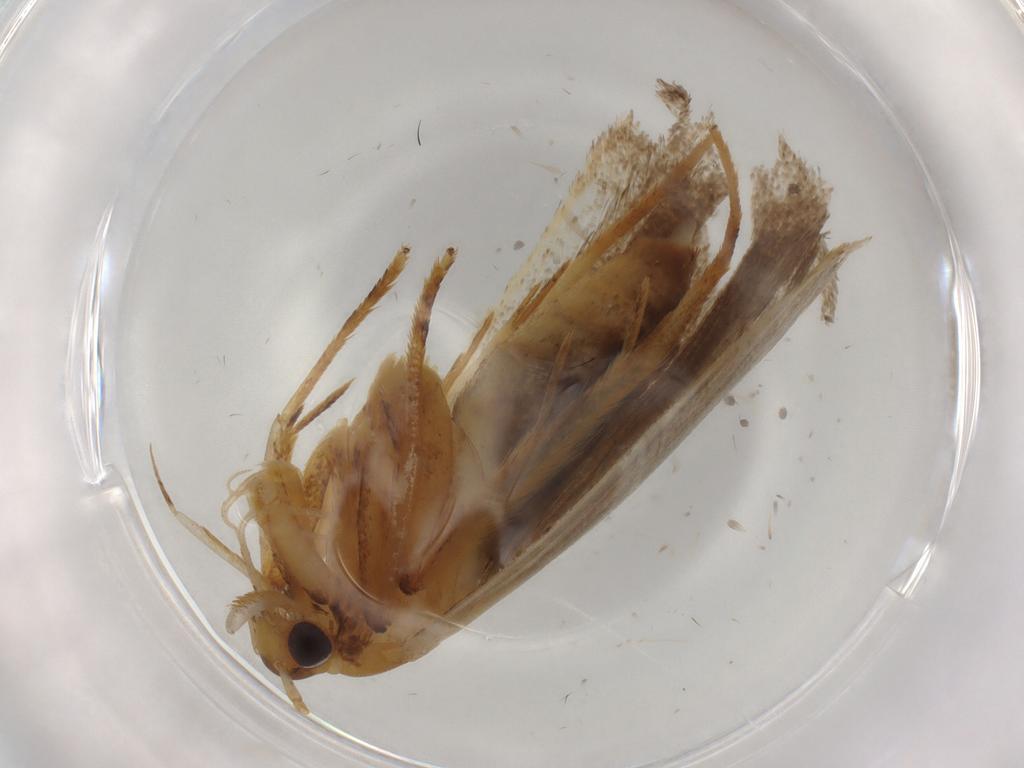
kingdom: Animalia
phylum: Arthropoda
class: Insecta
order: Lepidoptera
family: Lecithoceridae
